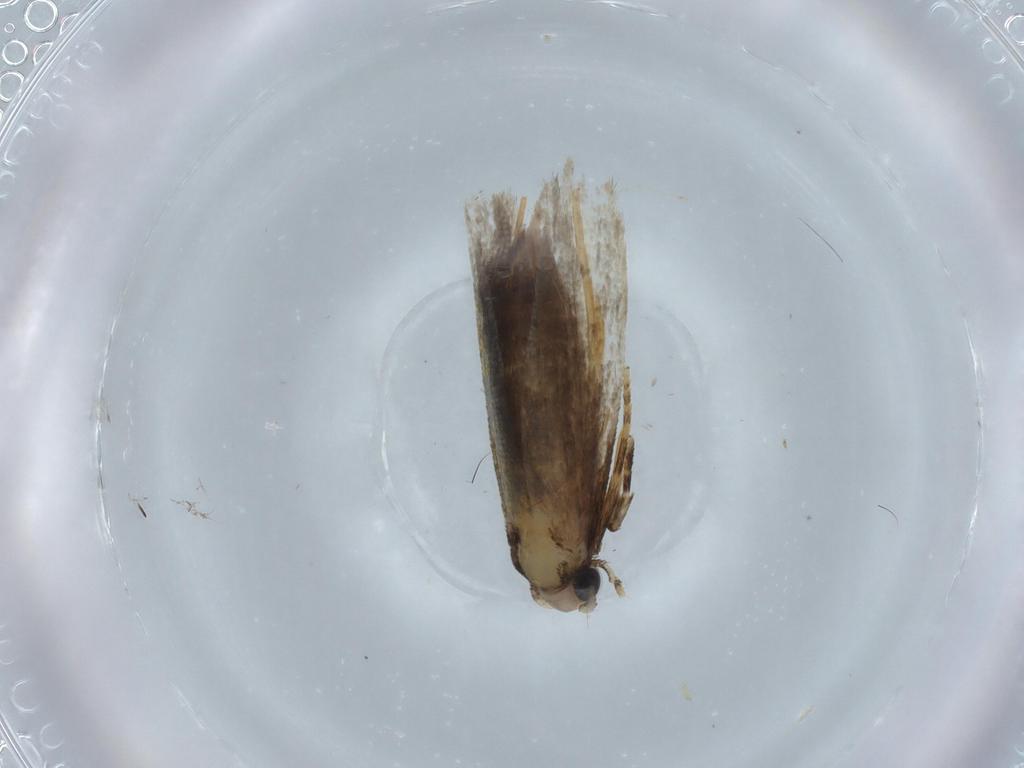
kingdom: Animalia
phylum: Arthropoda
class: Insecta
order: Lepidoptera
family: Tineidae
